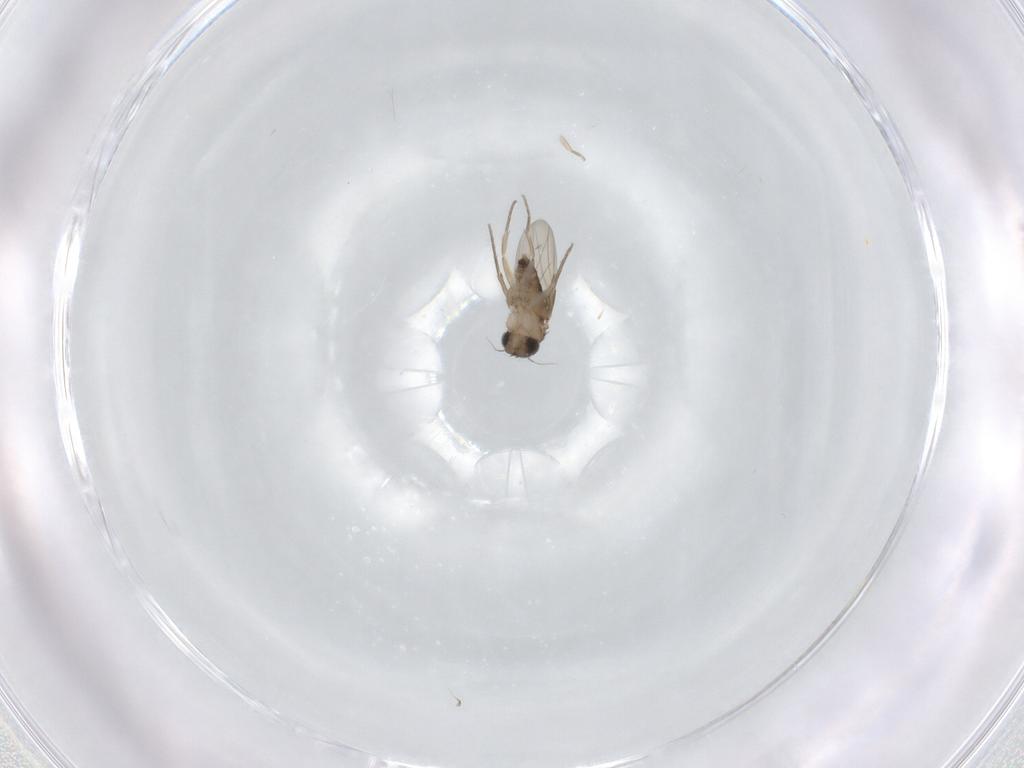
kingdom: Animalia
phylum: Arthropoda
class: Insecta
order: Diptera
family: Phoridae
